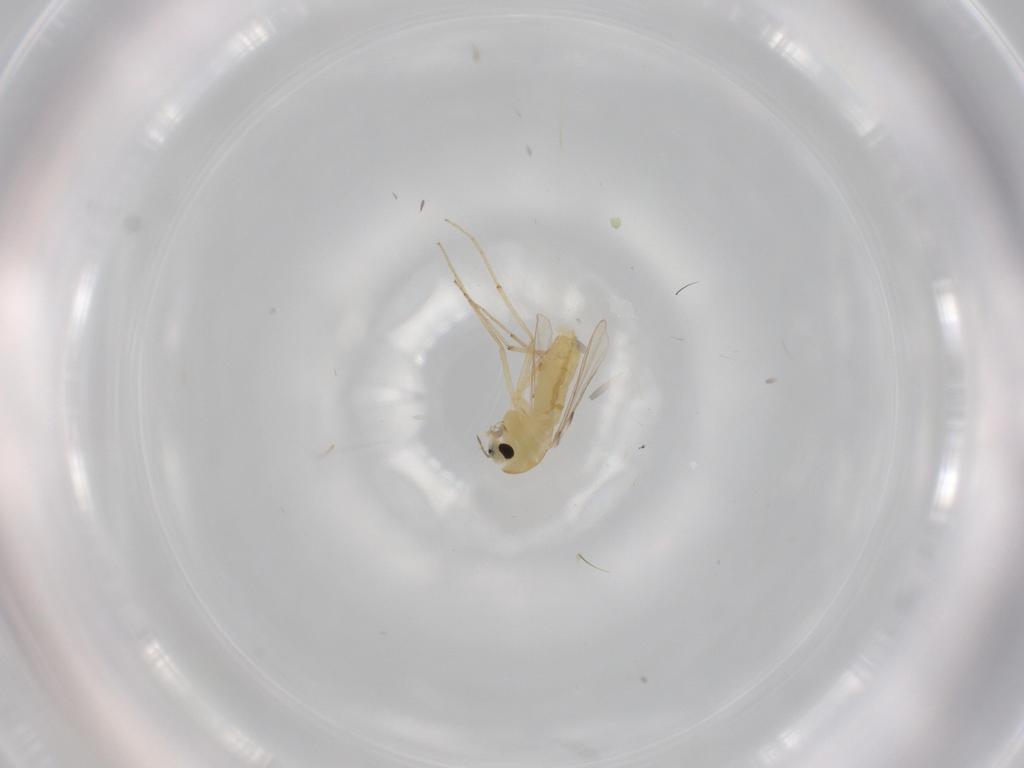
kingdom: Animalia
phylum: Arthropoda
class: Insecta
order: Diptera
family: Chironomidae
